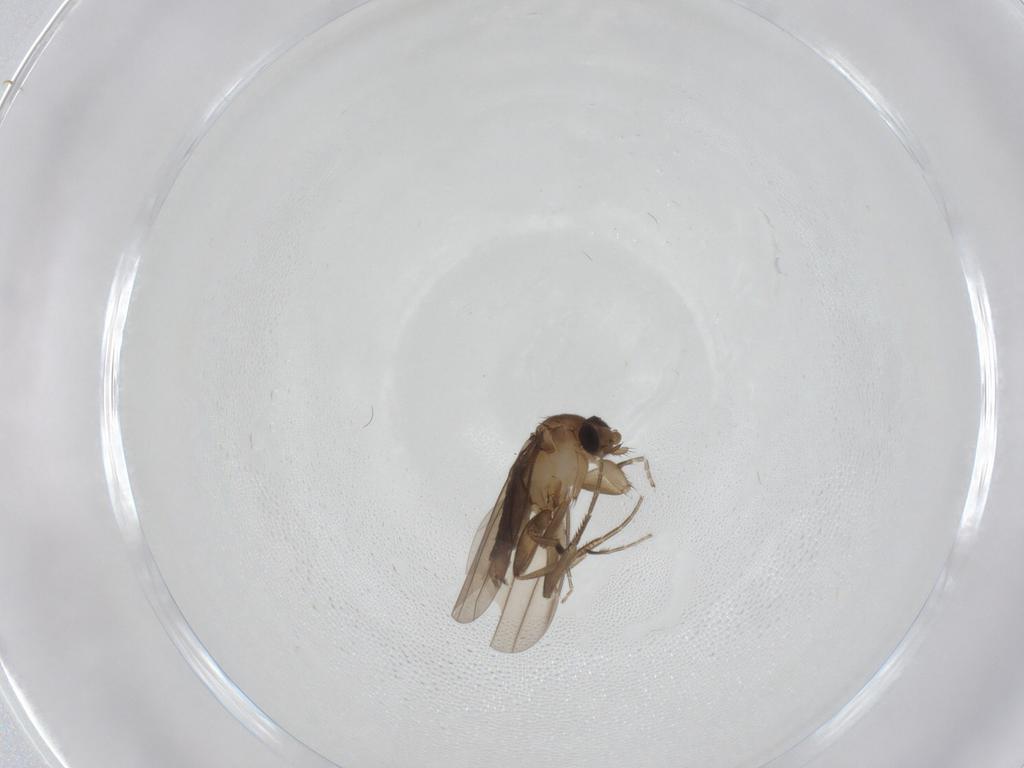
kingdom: Animalia
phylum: Arthropoda
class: Insecta
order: Diptera
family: Phoridae
